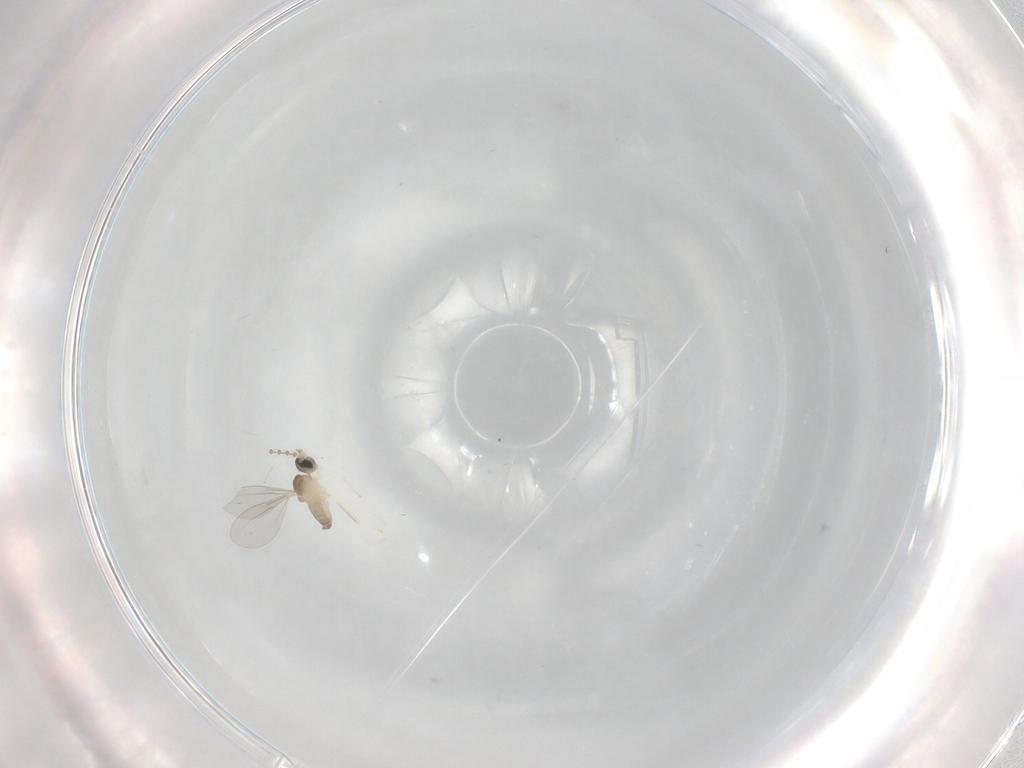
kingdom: Animalia
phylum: Arthropoda
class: Insecta
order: Diptera
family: Cecidomyiidae
